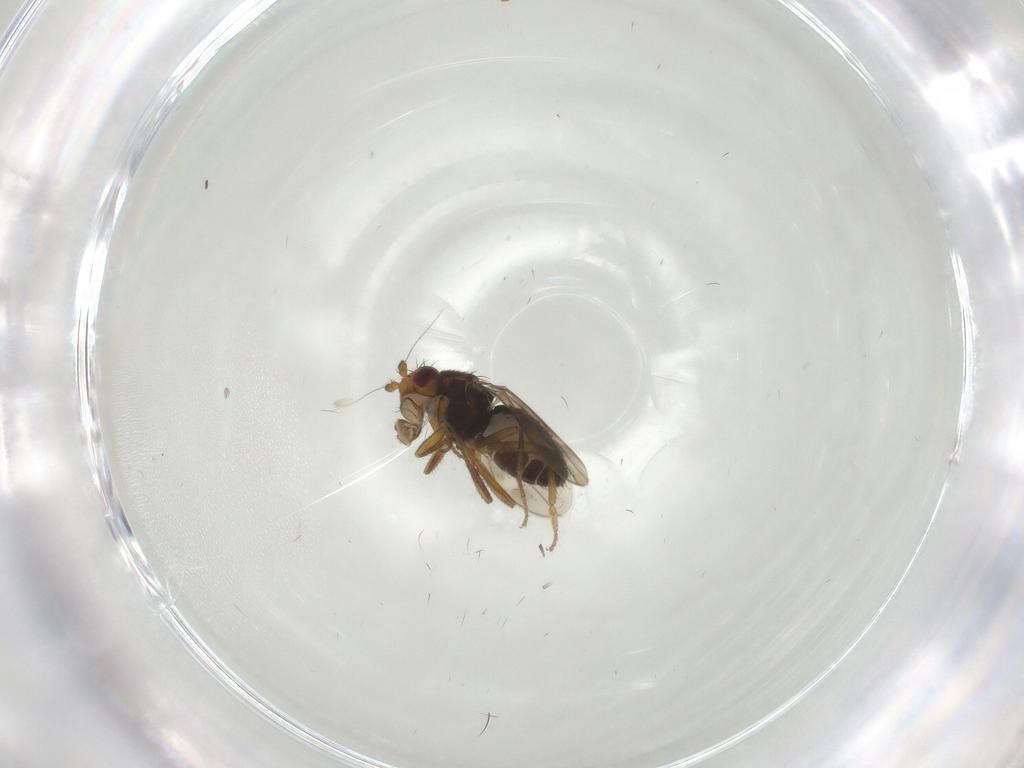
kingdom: Animalia
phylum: Arthropoda
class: Insecta
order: Diptera
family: Sphaeroceridae
